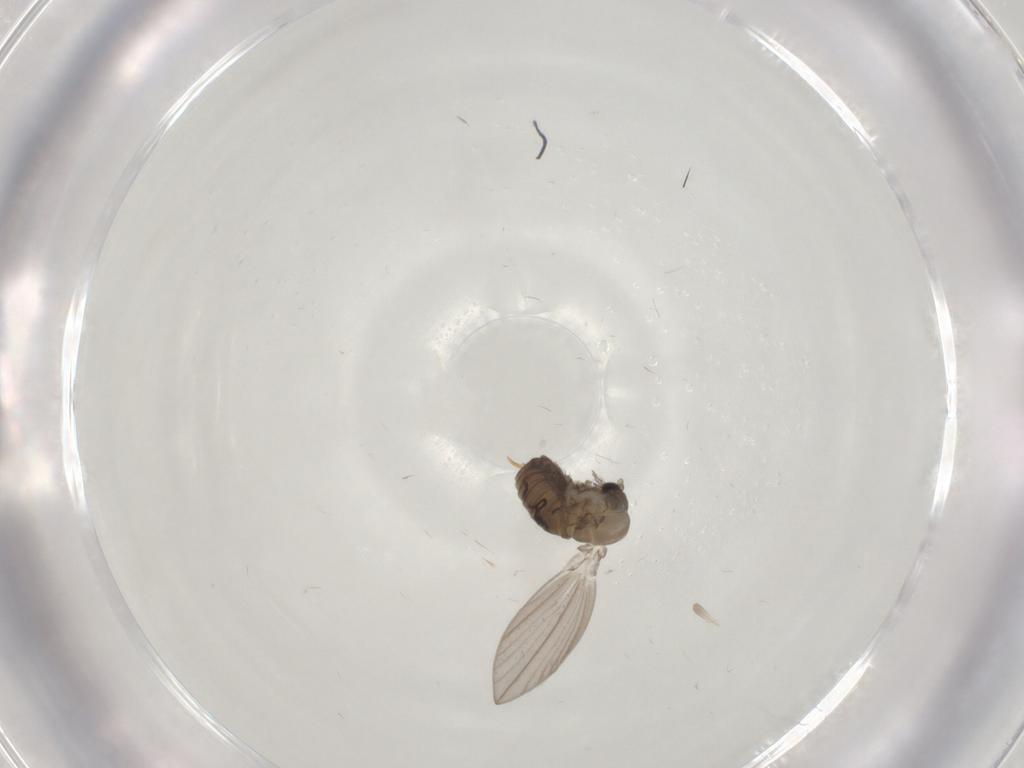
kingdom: Animalia
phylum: Arthropoda
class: Insecta
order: Diptera
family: Psychodidae
